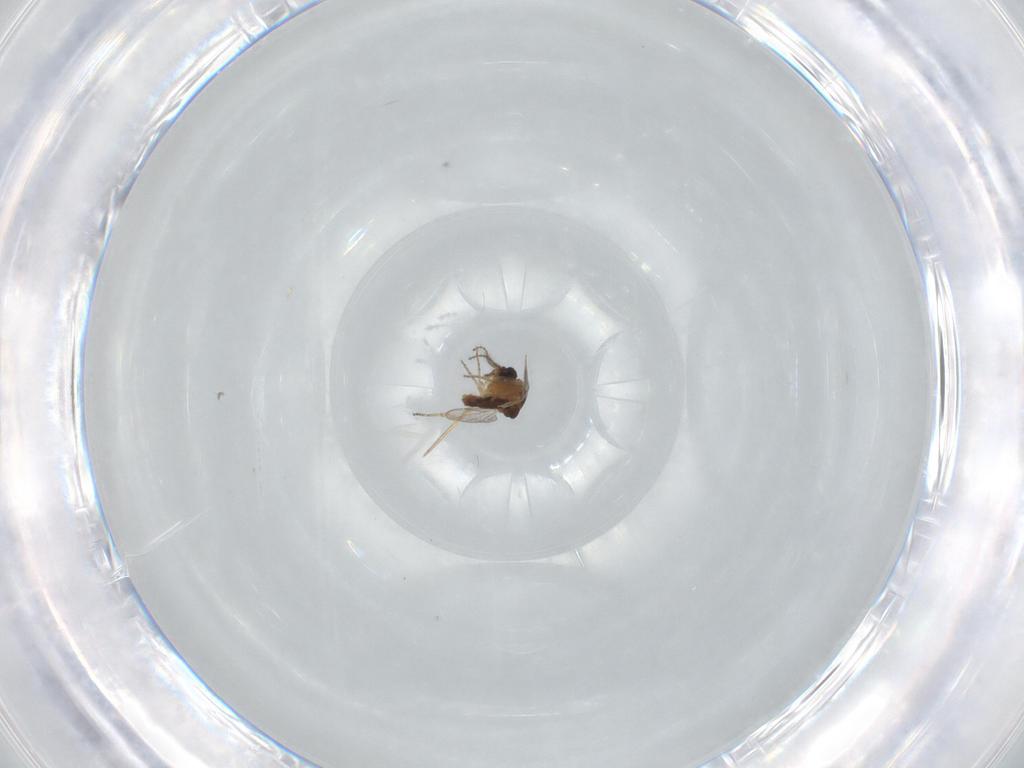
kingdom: Animalia
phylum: Arthropoda
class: Insecta
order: Diptera
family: Ceratopogonidae
